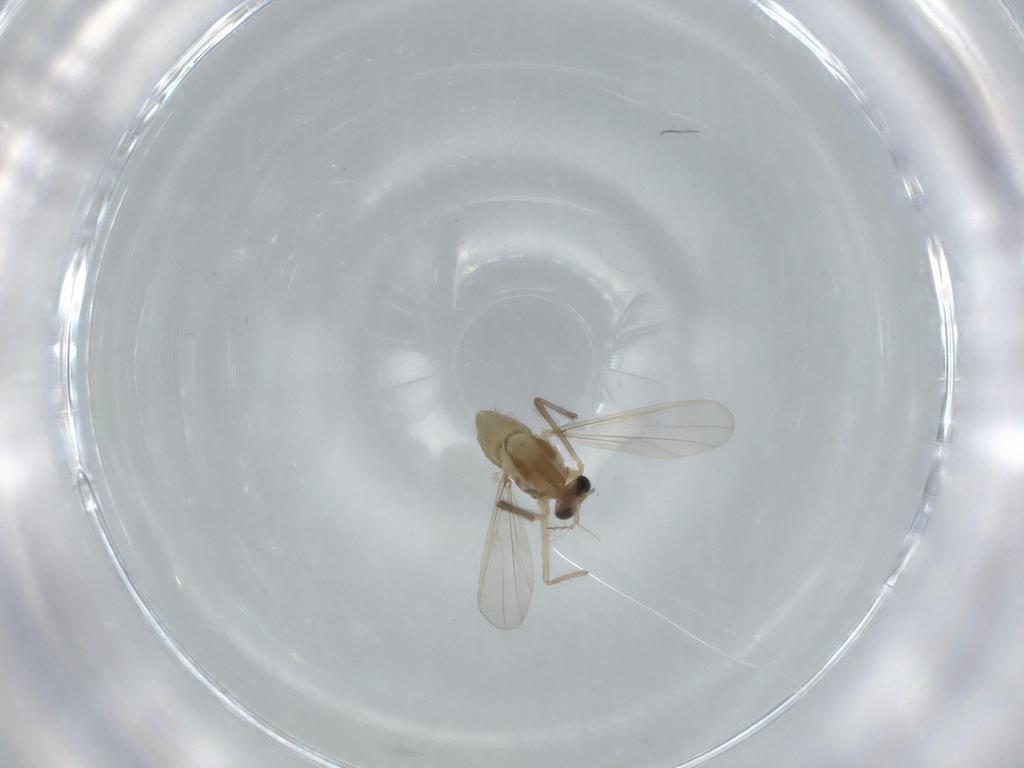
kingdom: Animalia
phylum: Arthropoda
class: Insecta
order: Diptera
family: Chironomidae
